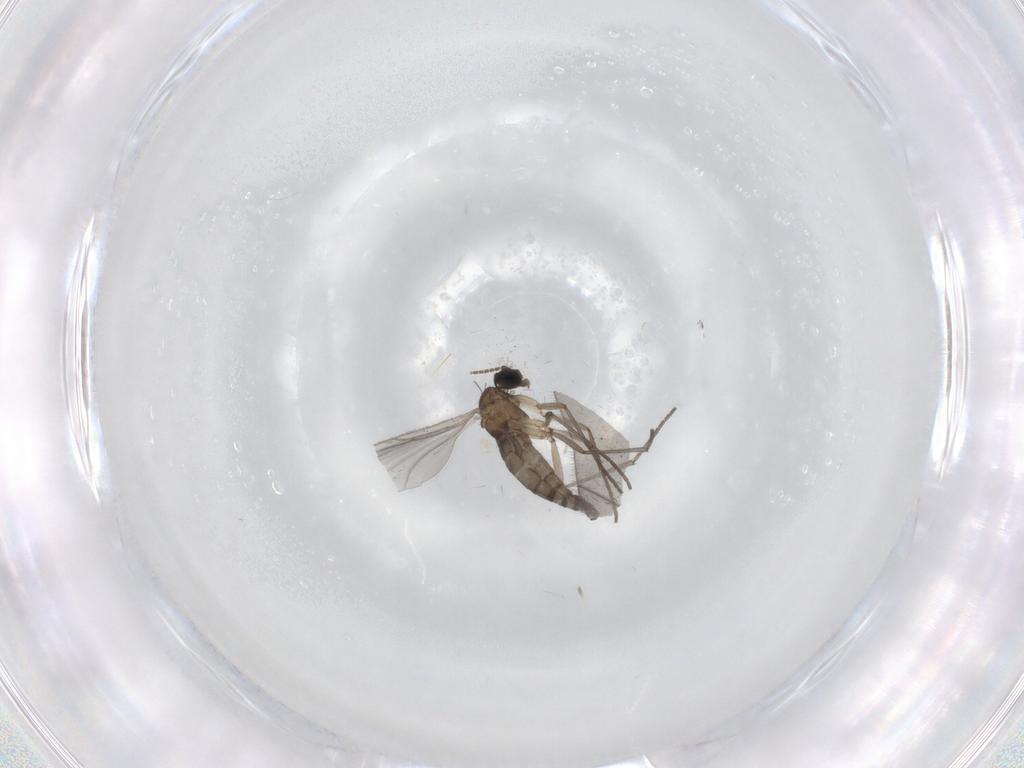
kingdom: Animalia
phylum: Arthropoda
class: Insecta
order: Diptera
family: Sciaridae
